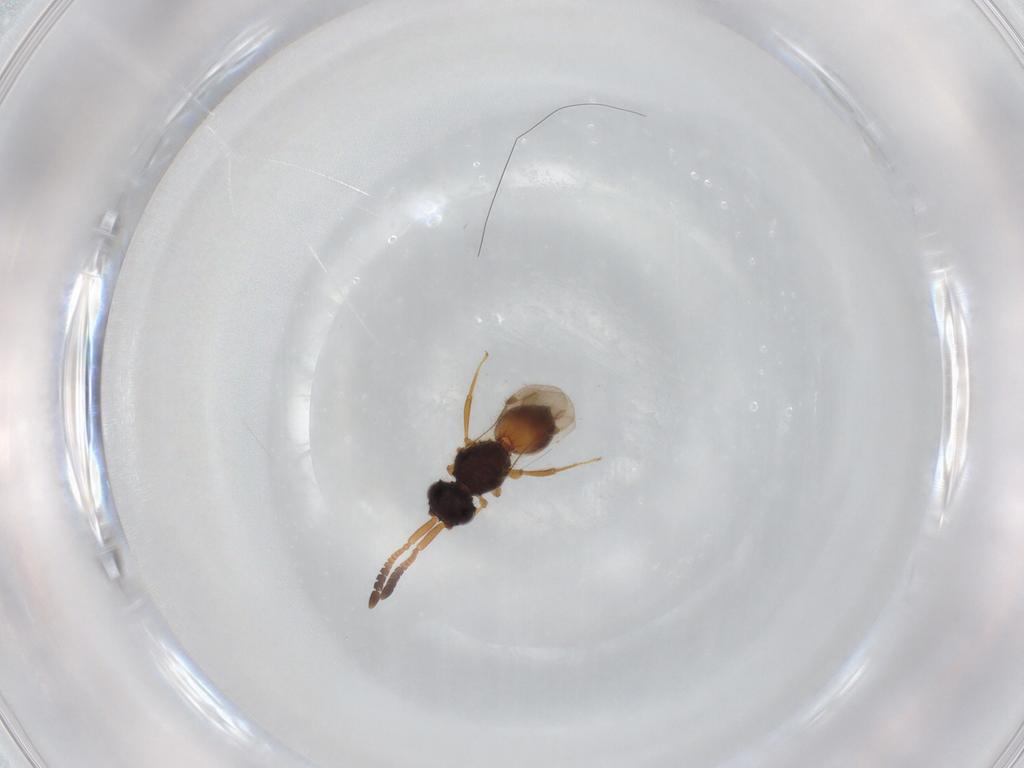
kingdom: Animalia
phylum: Arthropoda
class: Insecta
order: Hymenoptera
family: Megaspilidae
